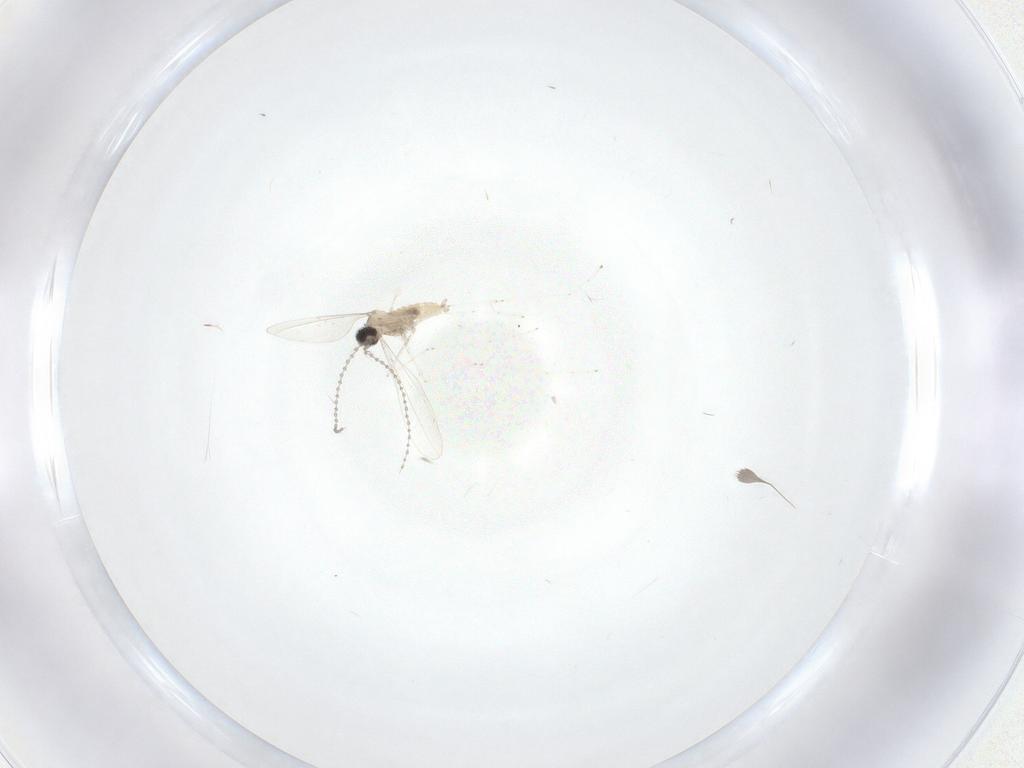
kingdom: Animalia
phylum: Arthropoda
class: Insecta
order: Diptera
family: Cecidomyiidae
